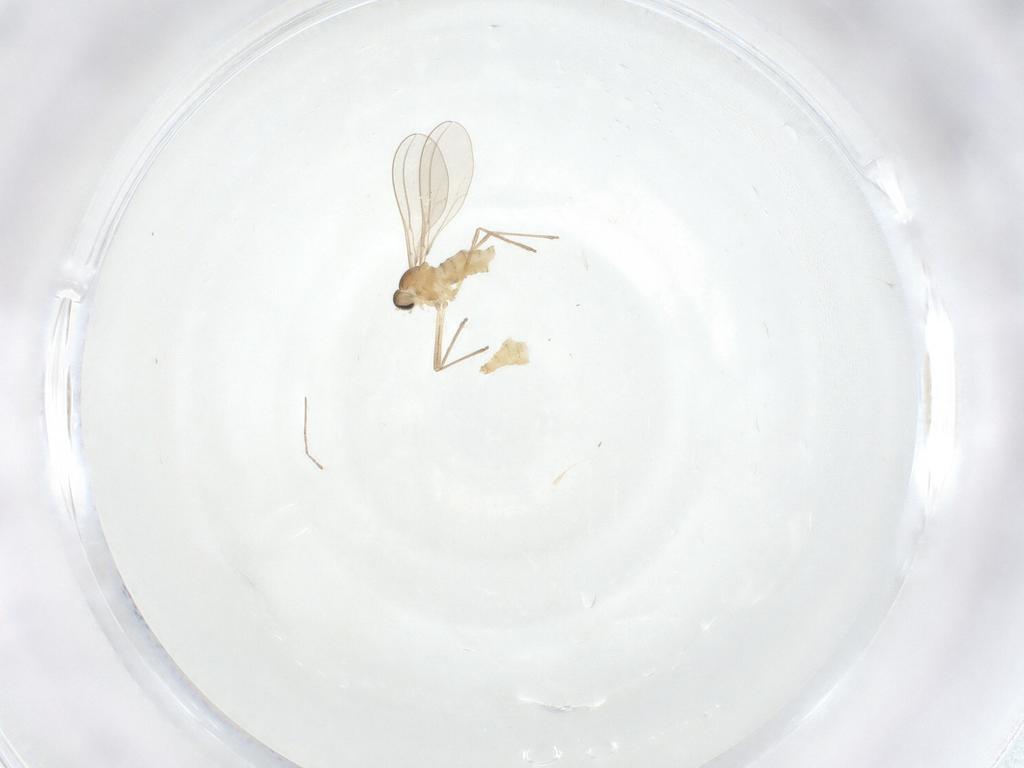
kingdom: Animalia
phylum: Arthropoda
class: Insecta
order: Diptera
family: Cecidomyiidae
